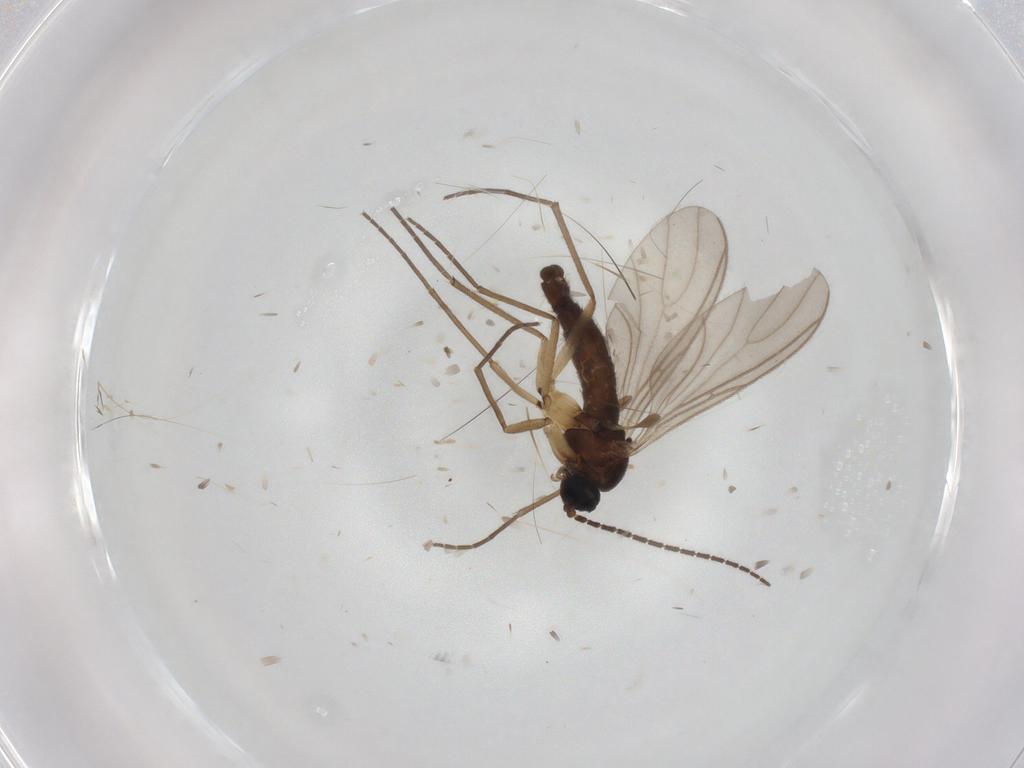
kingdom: Animalia
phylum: Arthropoda
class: Insecta
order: Diptera
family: Sciaridae
